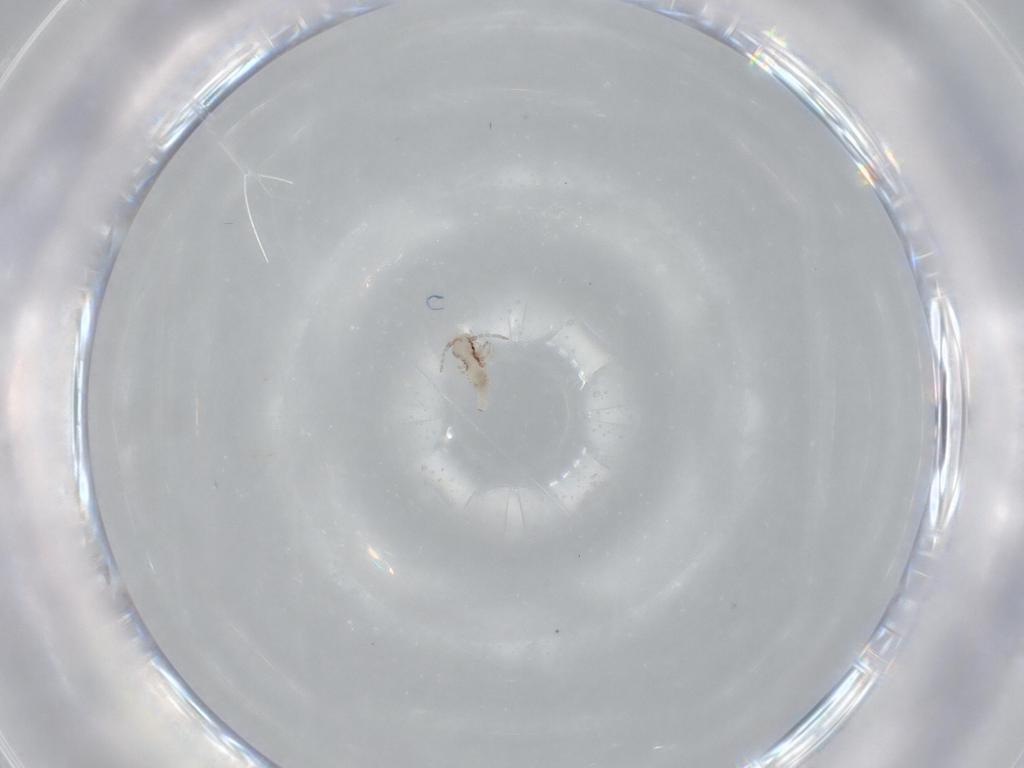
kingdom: Animalia
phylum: Arthropoda
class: Insecta
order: Psocodea
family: Pseudocaeciliidae
